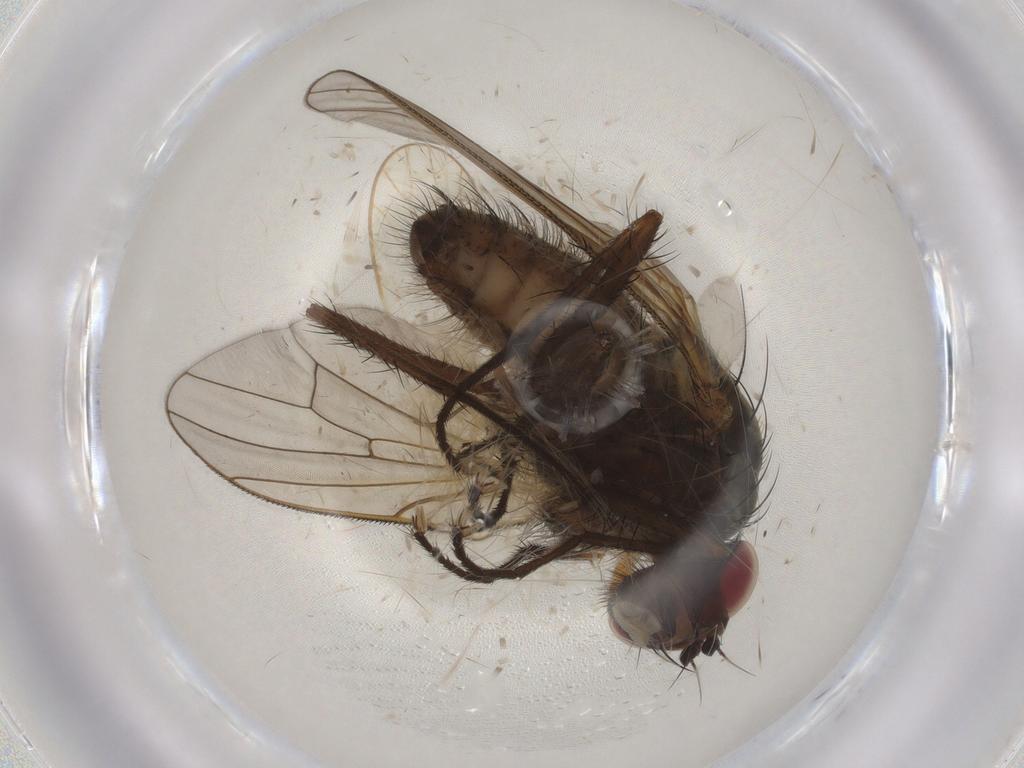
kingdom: Animalia
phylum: Arthropoda
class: Insecta
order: Diptera
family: Anthomyiidae
